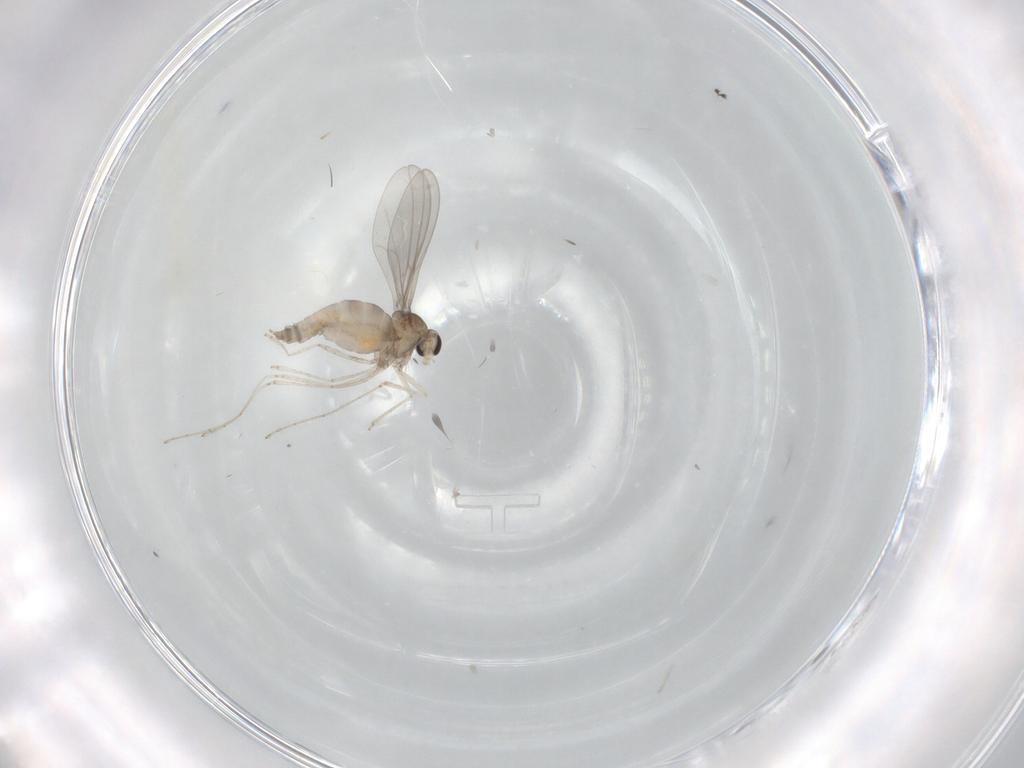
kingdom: Animalia
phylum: Arthropoda
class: Insecta
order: Diptera
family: Cecidomyiidae
